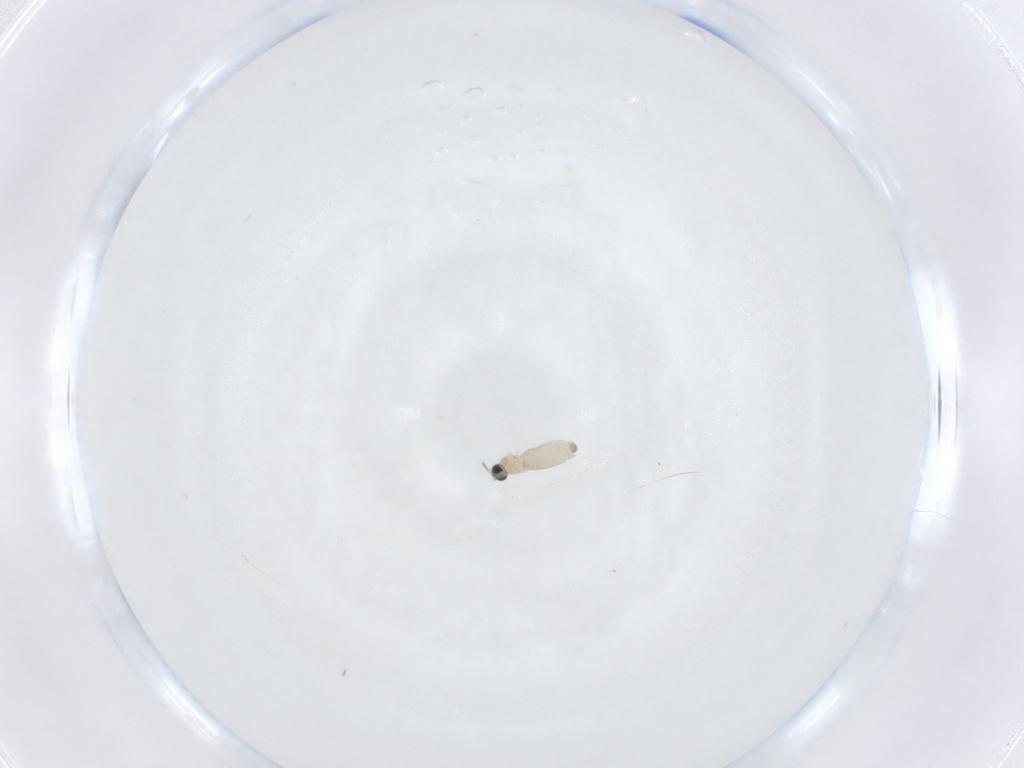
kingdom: Animalia
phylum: Arthropoda
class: Insecta
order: Diptera
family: Cecidomyiidae
